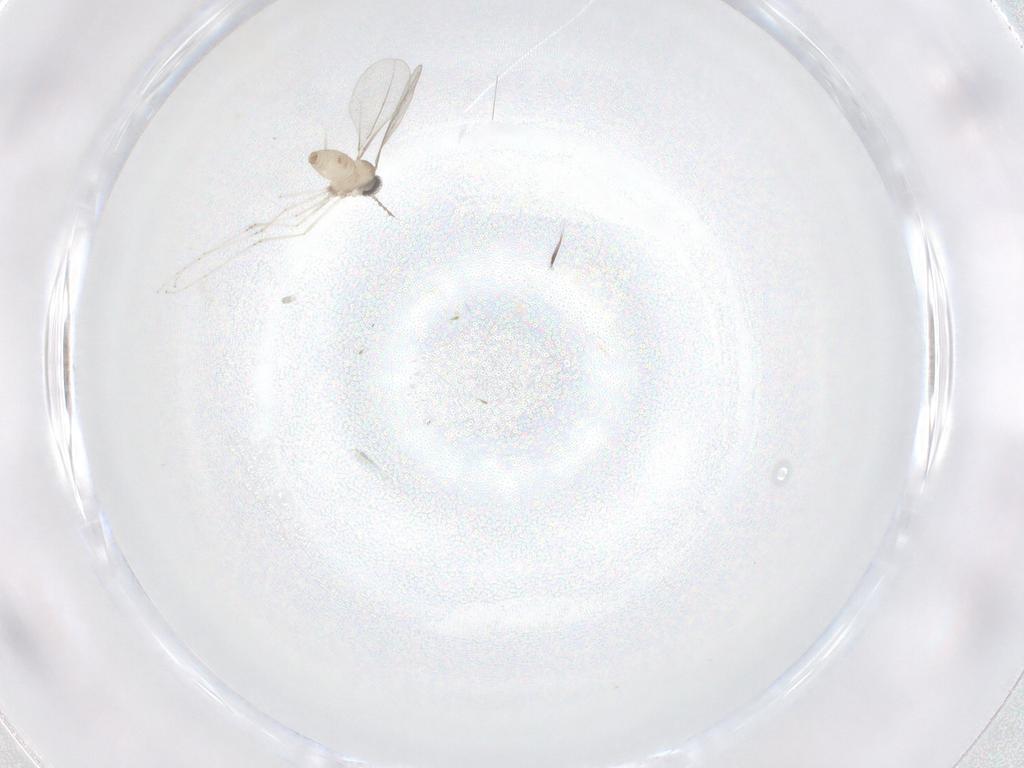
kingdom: Animalia
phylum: Arthropoda
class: Insecta
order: Diptera
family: Cecidomyiidae
